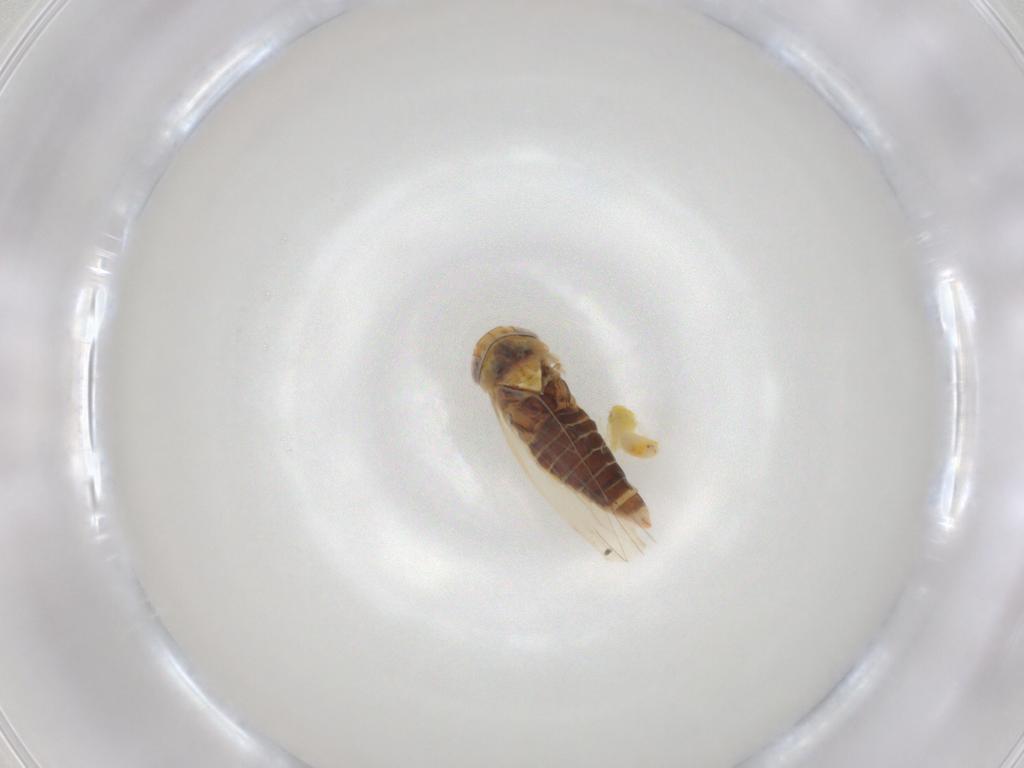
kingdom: Animalia
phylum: Arthropoda
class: Insecta
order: Hemiptera
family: Cicadellidae
